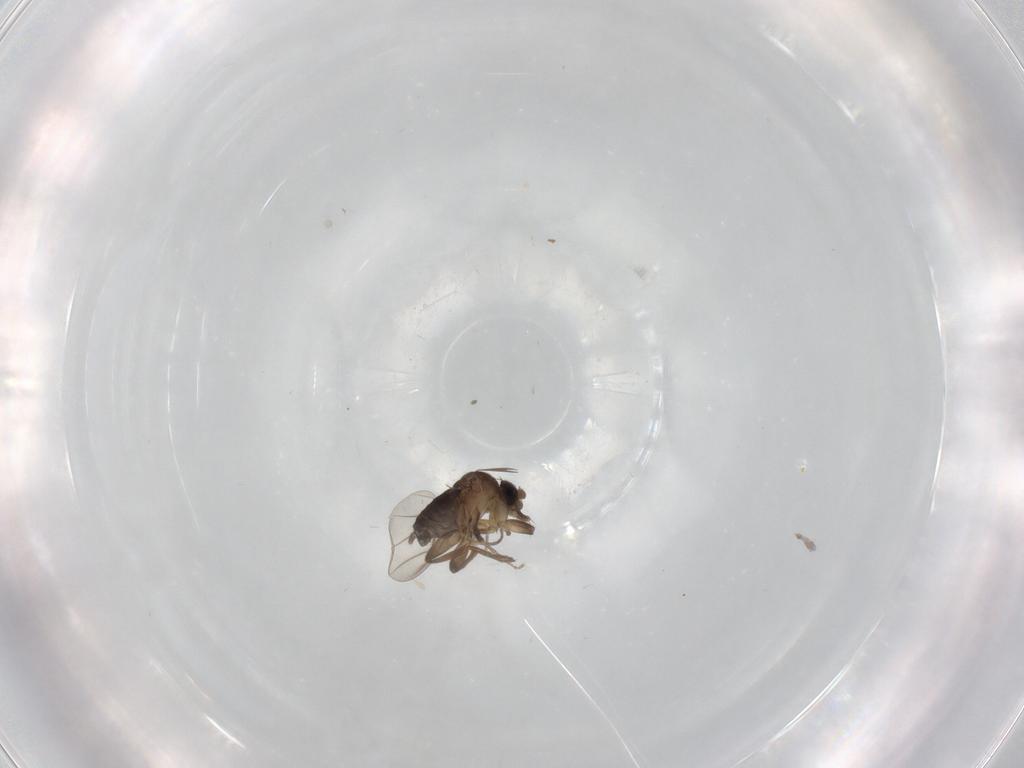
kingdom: Animalia
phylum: Arthropoda
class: Insecta
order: Diptera
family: Phoridae
